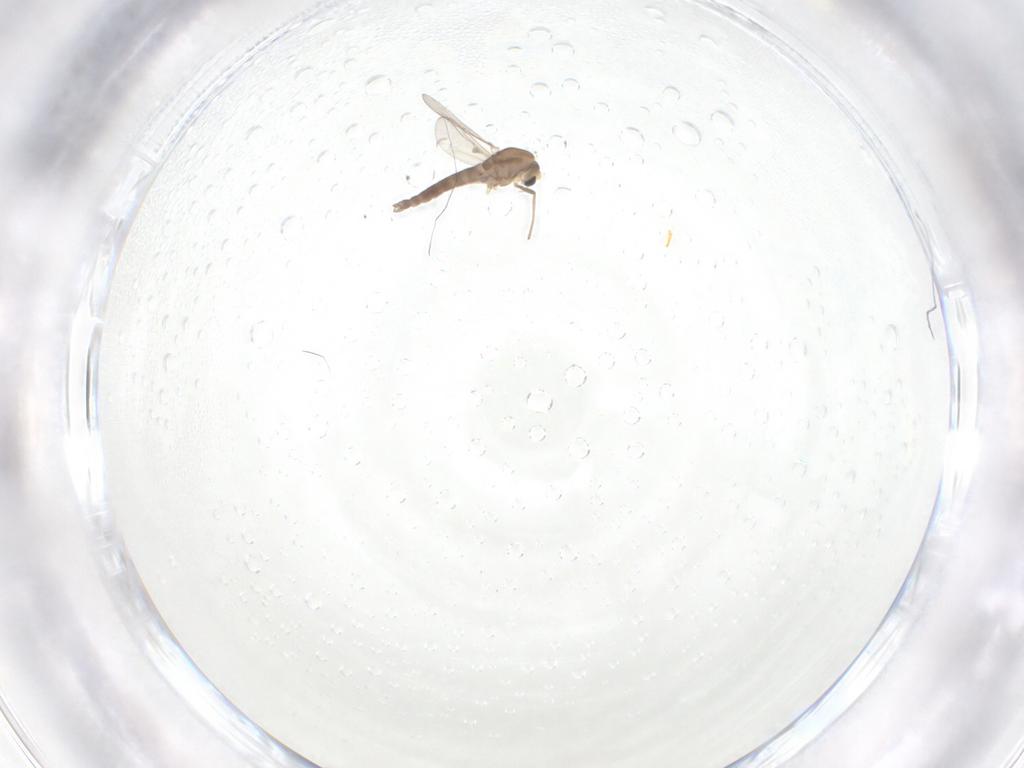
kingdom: Animalia
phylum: Arthropoda
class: Insecta
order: Diptera
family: Chironomidae
